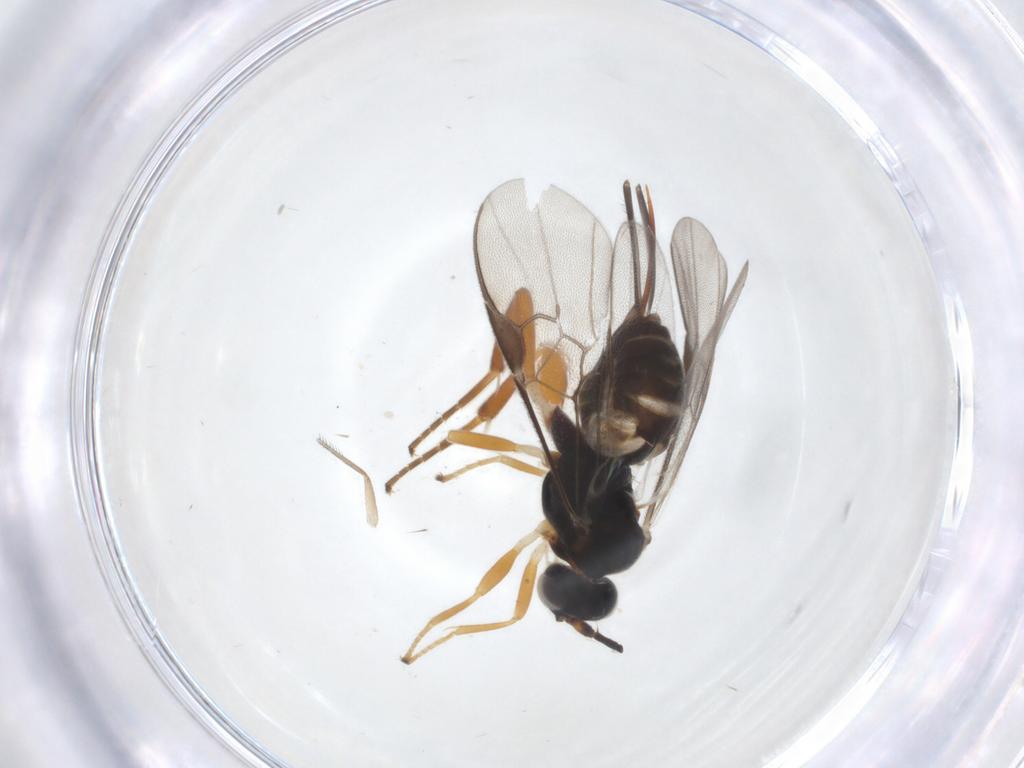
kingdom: Animalia
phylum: Arthropoda
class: Insecta
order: Hymenoptera
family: Braconidae
